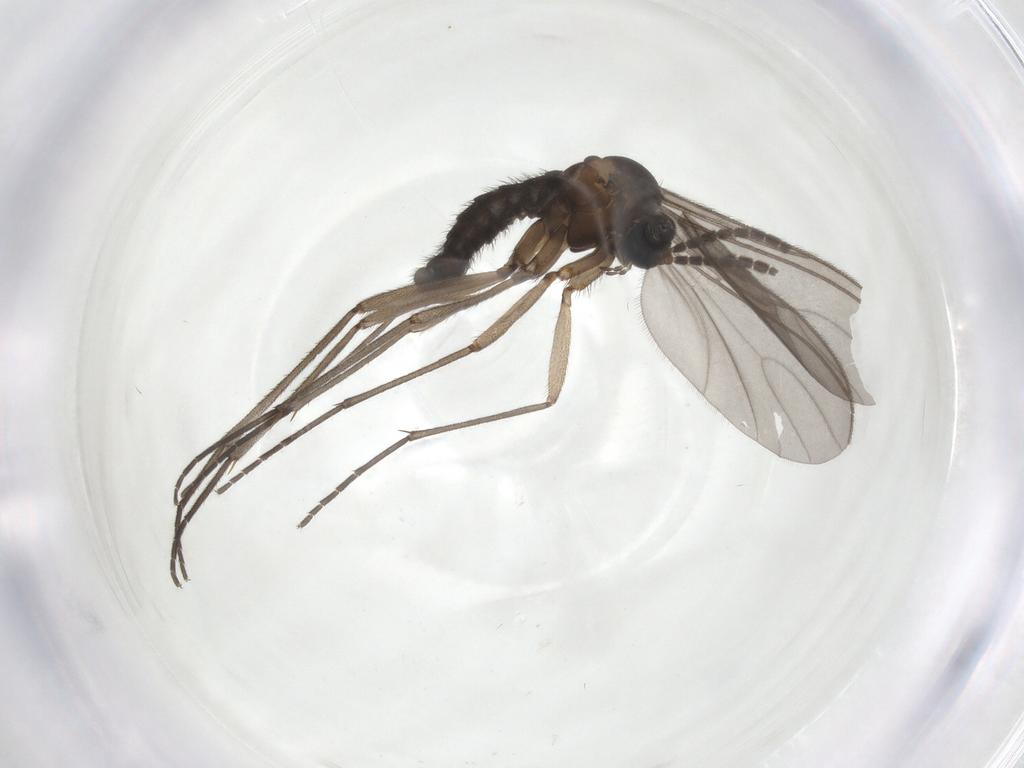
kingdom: Animalia
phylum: Arthropoda
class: Insecta
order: Diptera
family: Sciaridae
